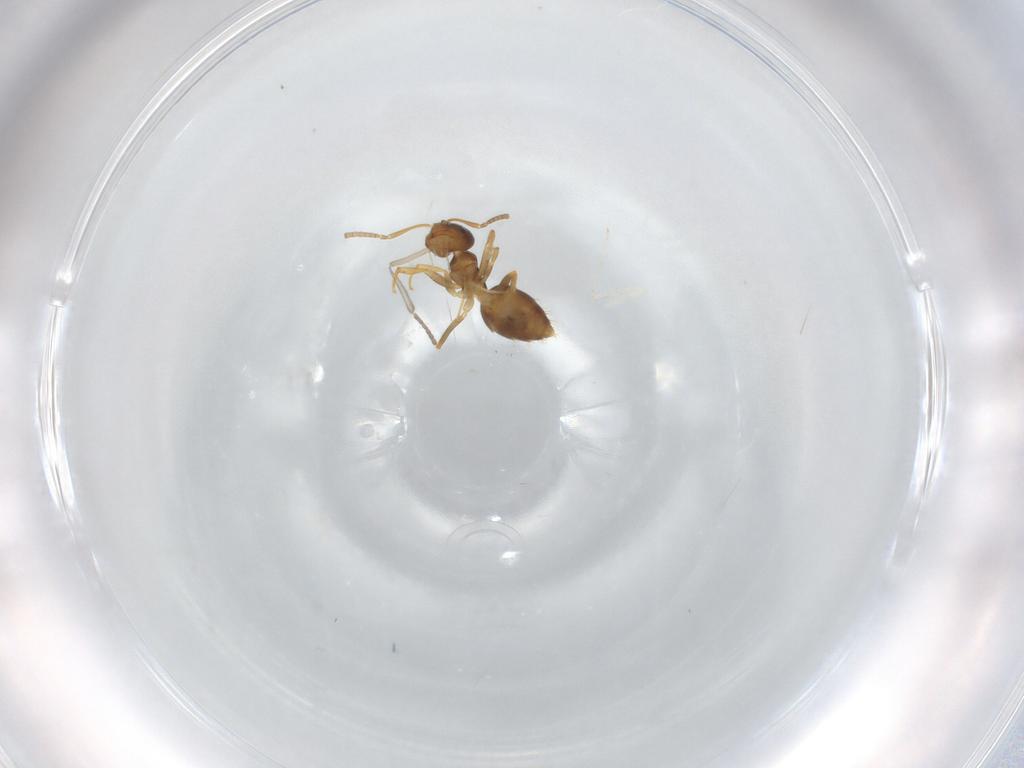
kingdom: Animalia
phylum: Arthropoda
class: Insecta
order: Hymenoptera
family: Formicidae
